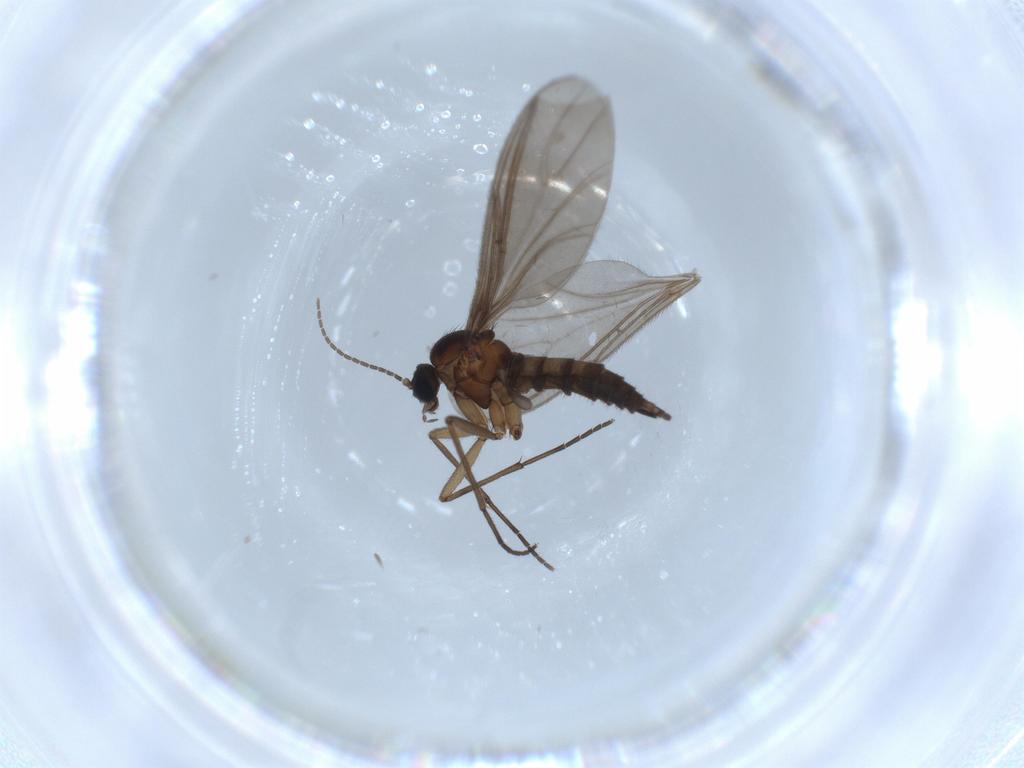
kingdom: Animalia
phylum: Arthropoda
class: Insecta
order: Diptera
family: Sciaridae
